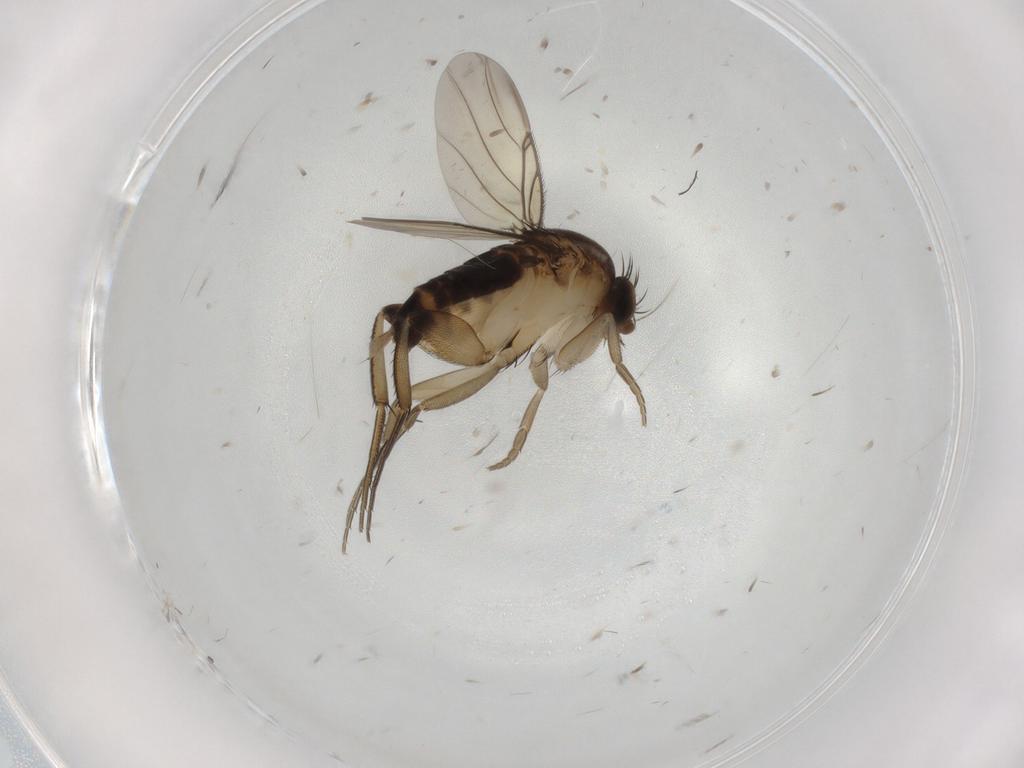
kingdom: Animalia
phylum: Arthropoda
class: Insecta
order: Diptera
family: Phoridae
